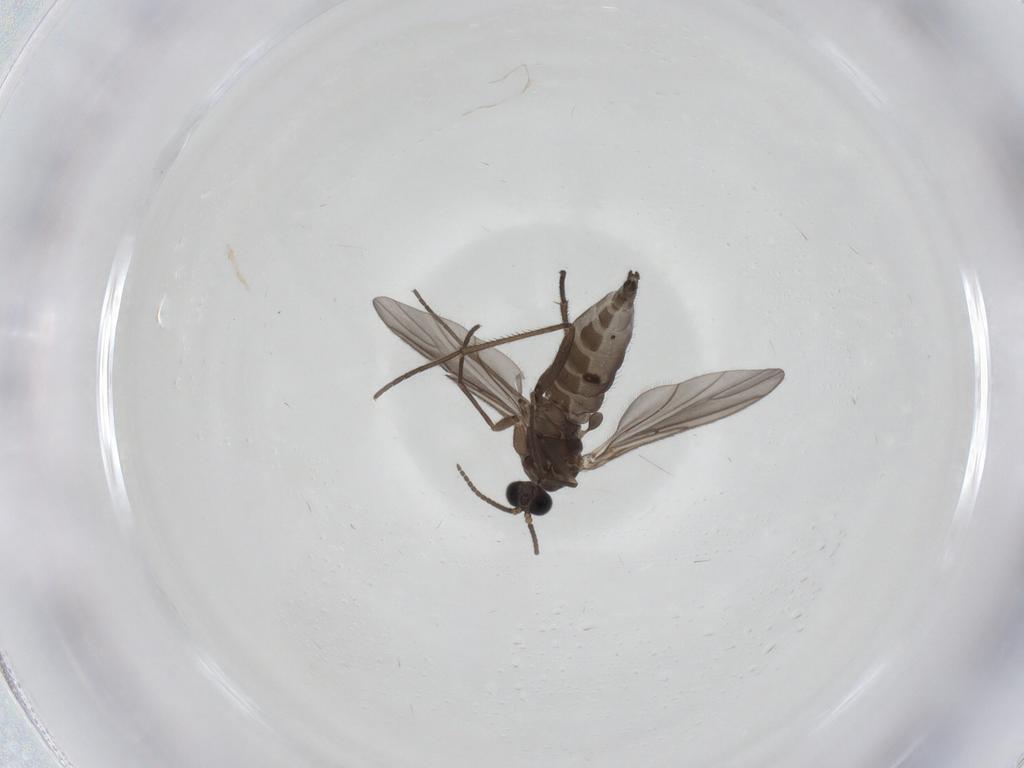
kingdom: Animalia
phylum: Arthropoda
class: Insecta
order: Diptera
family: Sciaridae
